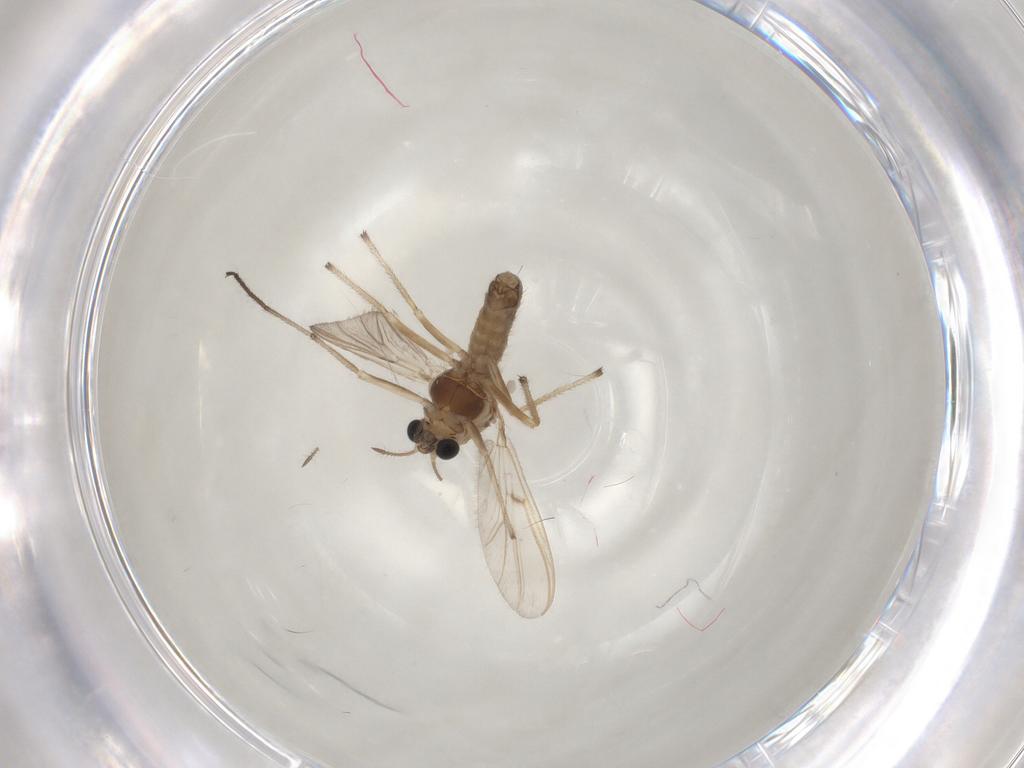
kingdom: Animalia
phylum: Arthropoda
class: Insecta
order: Diptera
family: Chironomidae
